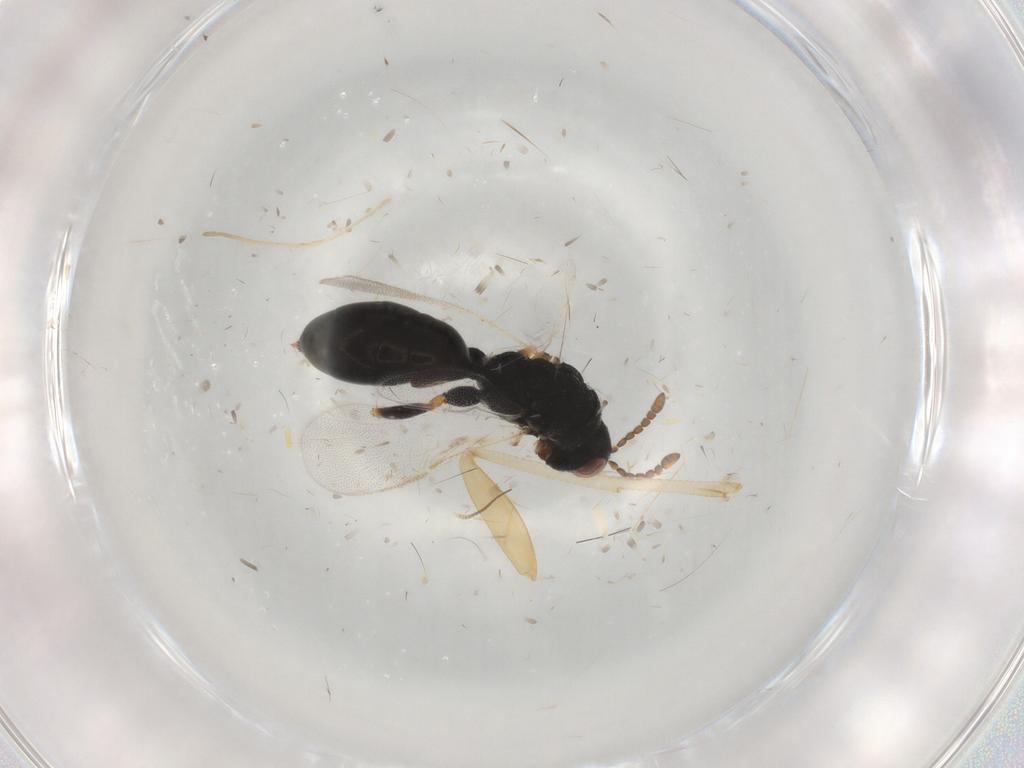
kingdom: Animalia
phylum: Arthropoda
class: Insecta
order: Hymenoptera
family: Eurytomidae
